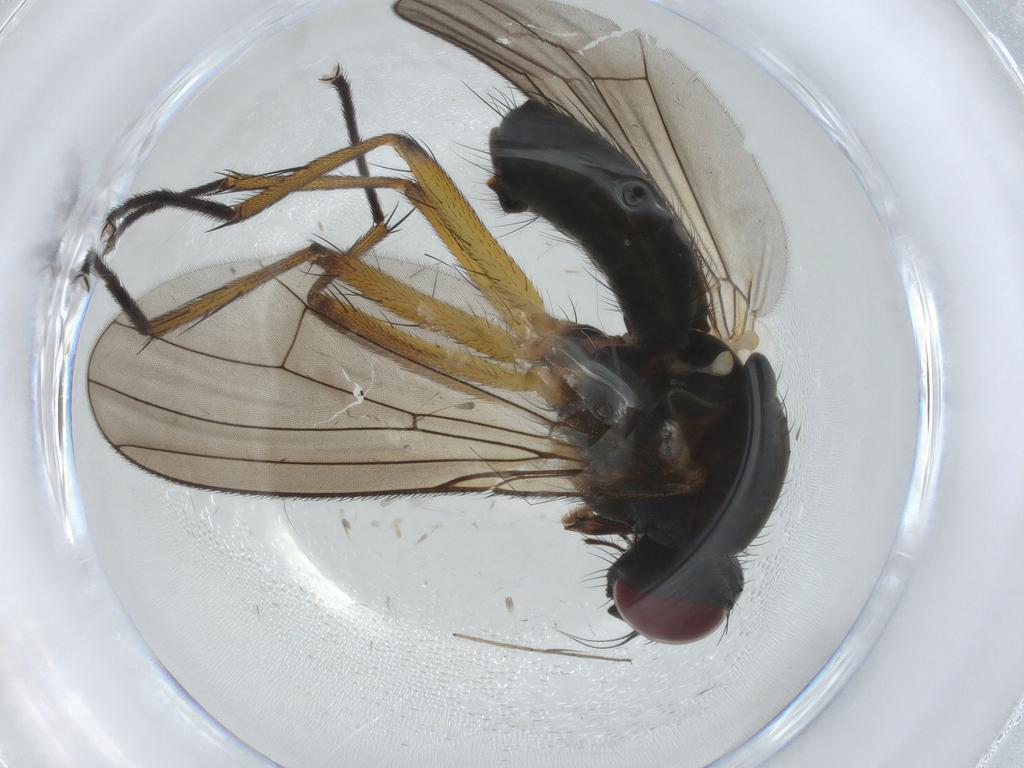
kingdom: Animalia
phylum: Arthropoda
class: Insecta
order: Diptera
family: Muscidae
